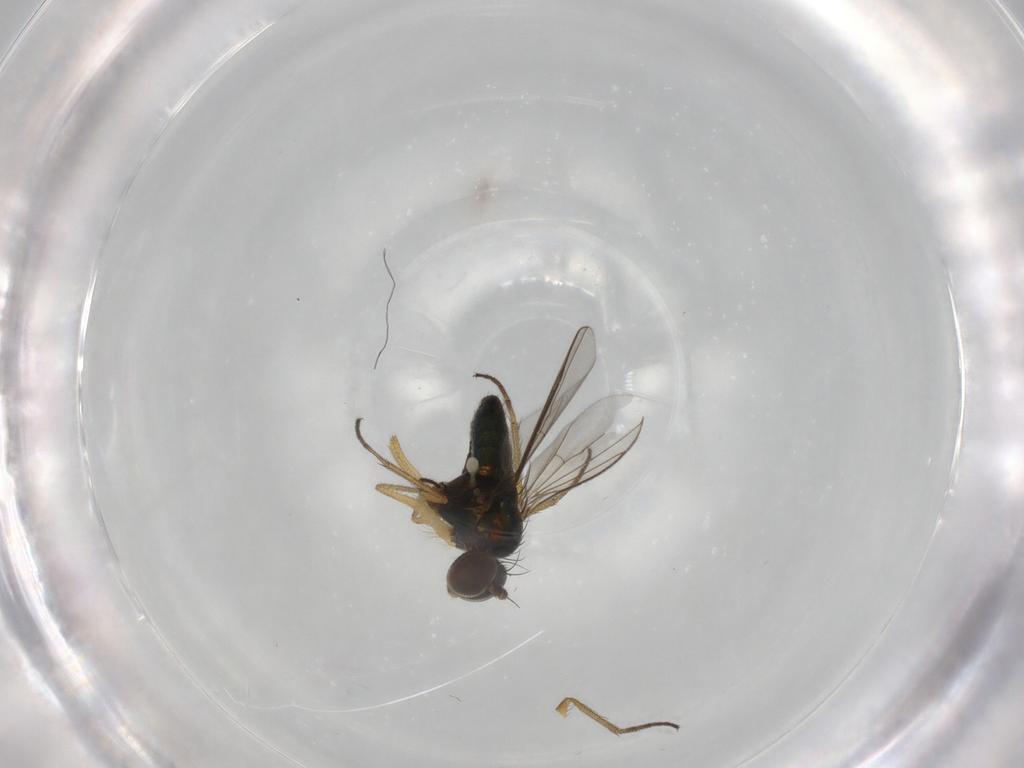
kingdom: Animalia
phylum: Arthropoda
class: Insecta
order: Diptera
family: Dolichopodidae
